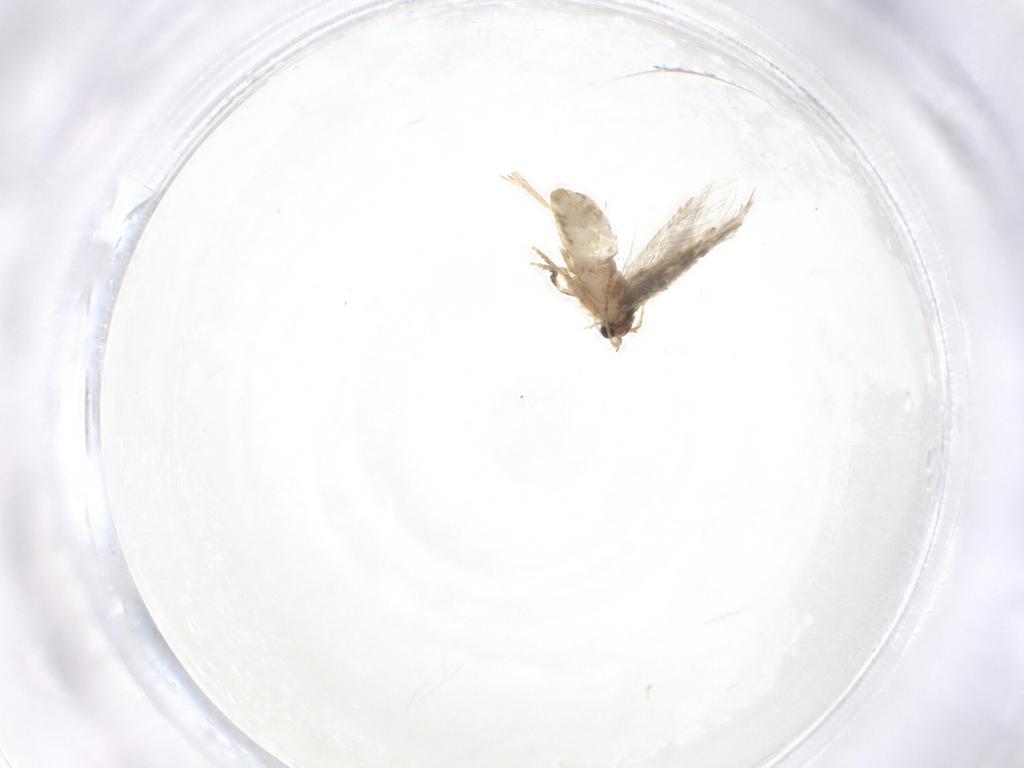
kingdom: Animalia
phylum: Arthropoda
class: Insecta
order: Lepidoptera
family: Nepticulidae
